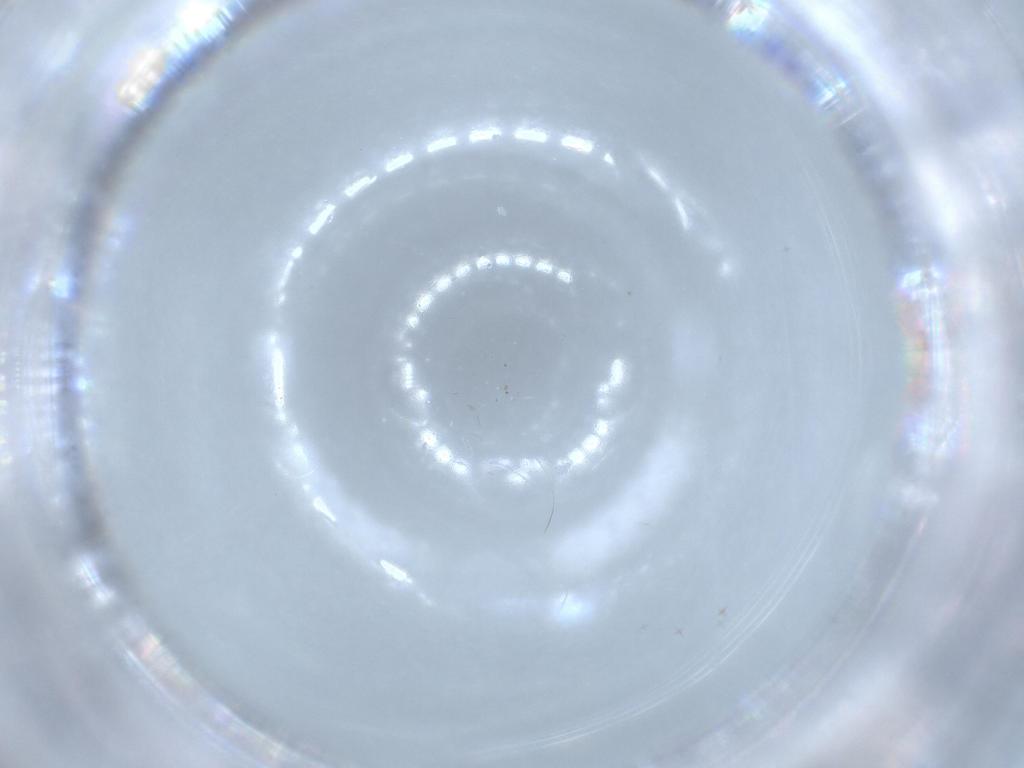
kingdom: Animalia
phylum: Arthropoda
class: Insecta
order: Diptera
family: Cecidomyiidae
